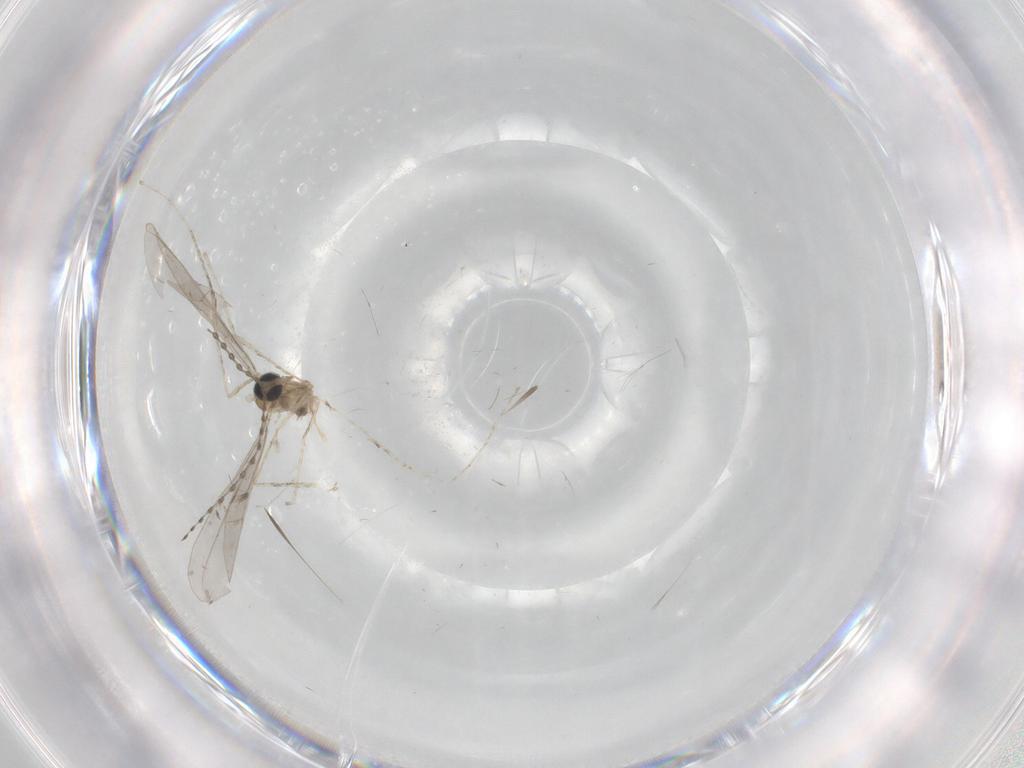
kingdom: Animalia
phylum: Arthropoda
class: Insecta
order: Diptera
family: Cecidomyiidae
